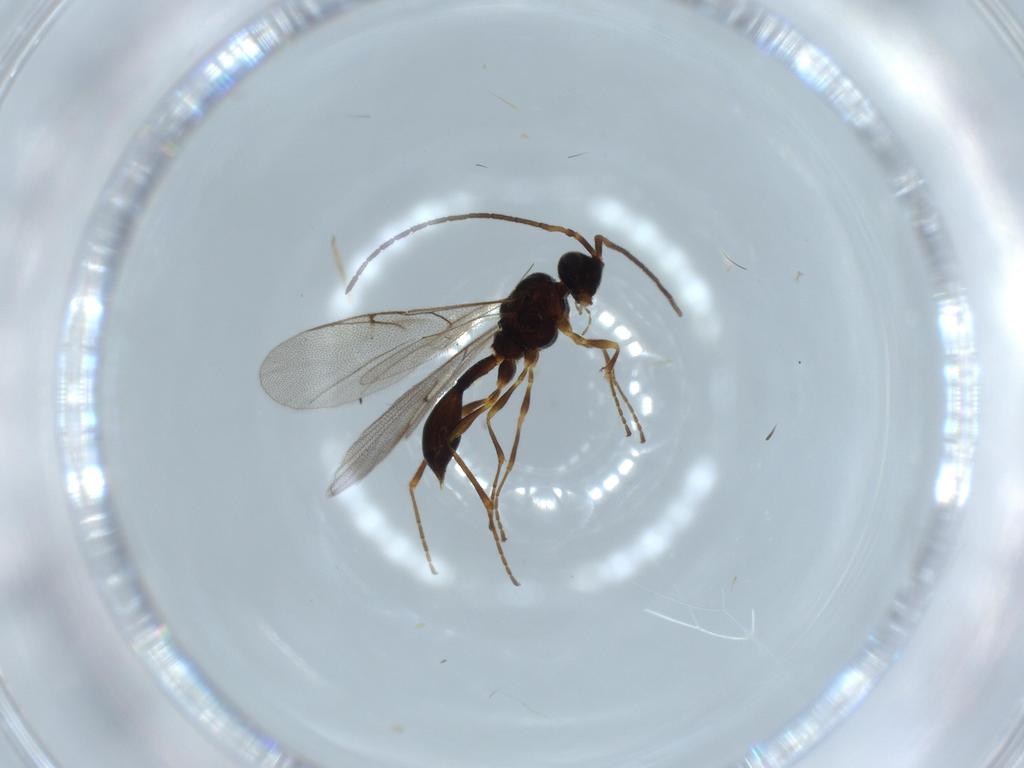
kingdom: Animalia
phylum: Arthropoda
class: Insecta
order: Hymenoptera
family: Diapriidae
